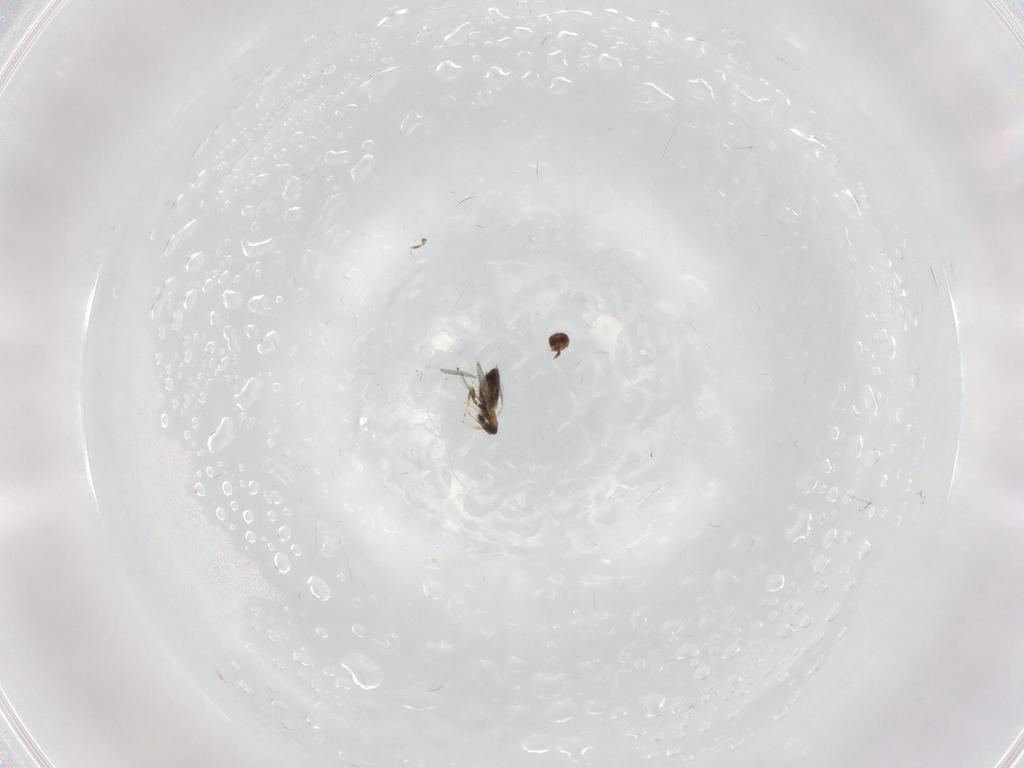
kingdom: Animalia
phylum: Arthropoda
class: Insecta
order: Hymenoptera
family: Trichogrammatidae
